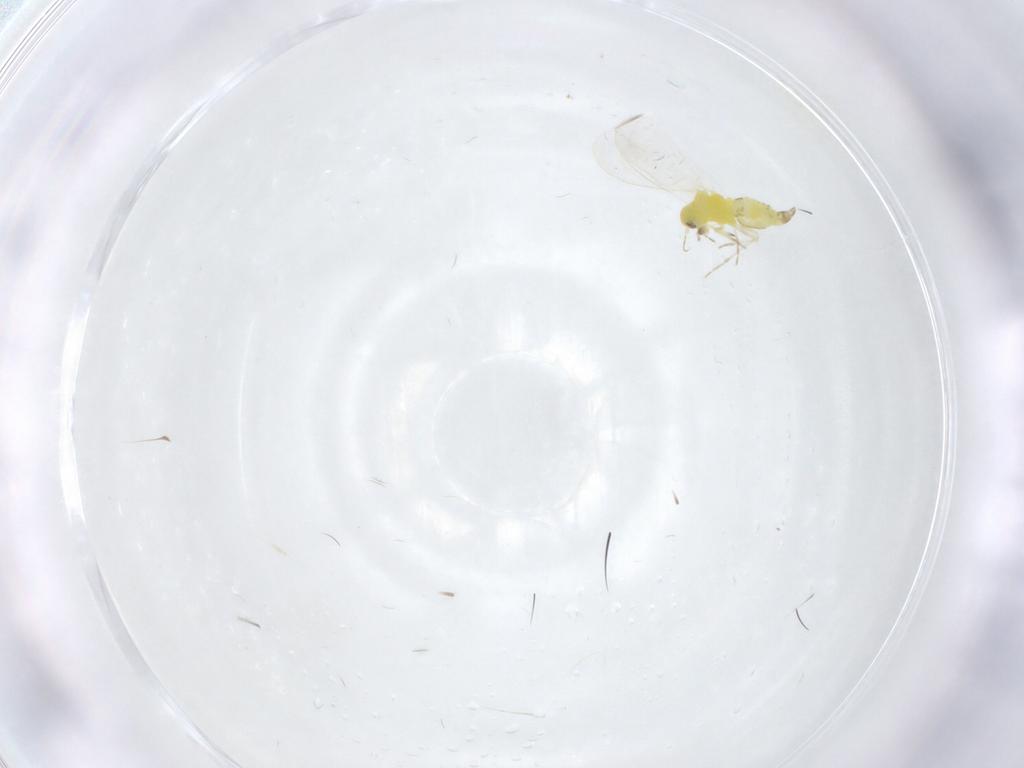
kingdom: Animalia
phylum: Arthropoda
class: Insecta
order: Hemiptera
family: Aleyrodidae
